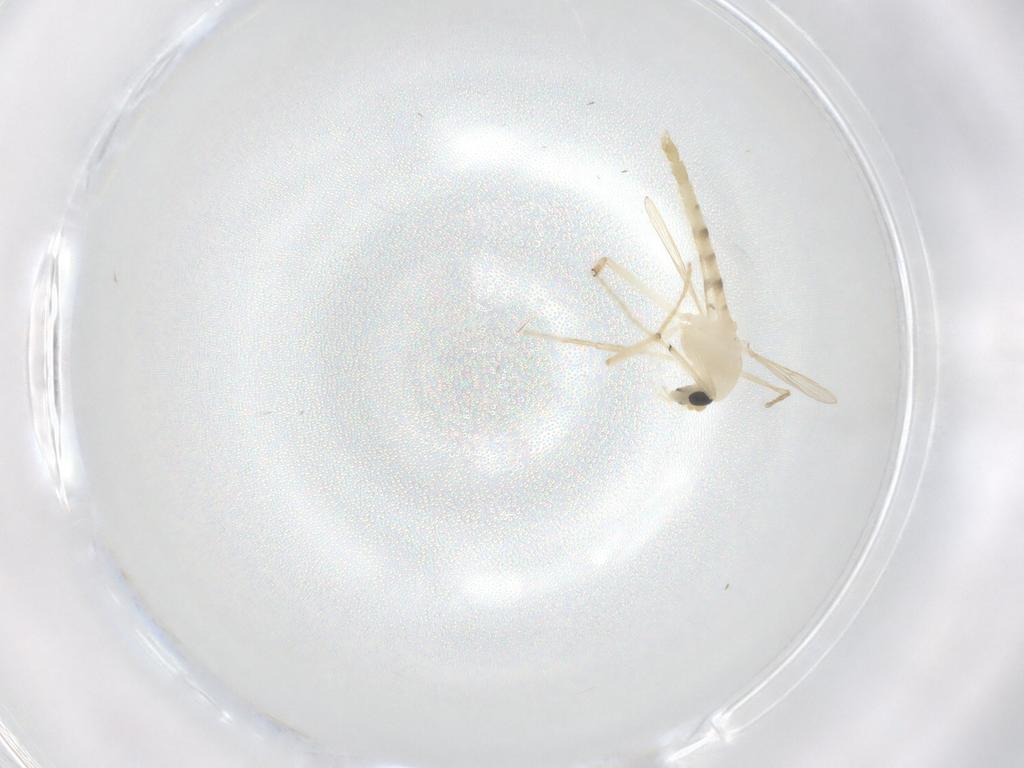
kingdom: Animalia
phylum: Arthropoda
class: Insecta
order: Diptera
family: Chironomidae
